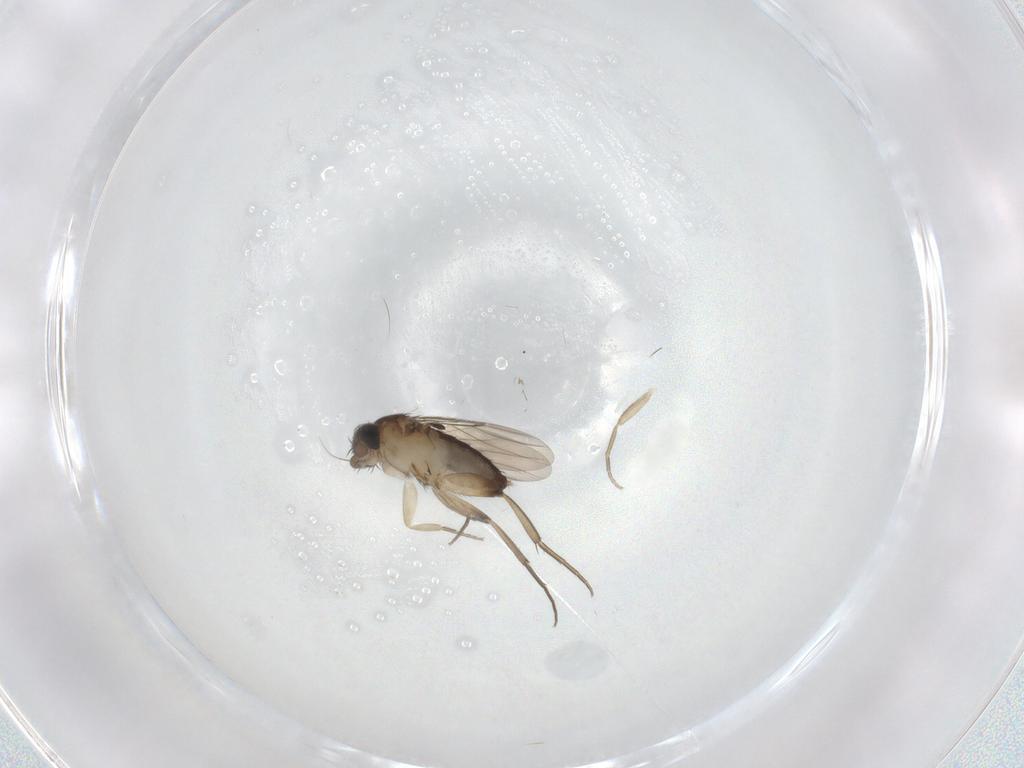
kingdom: Animalia
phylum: Arthropoda
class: Insecta
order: Diptera
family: Phoridae
